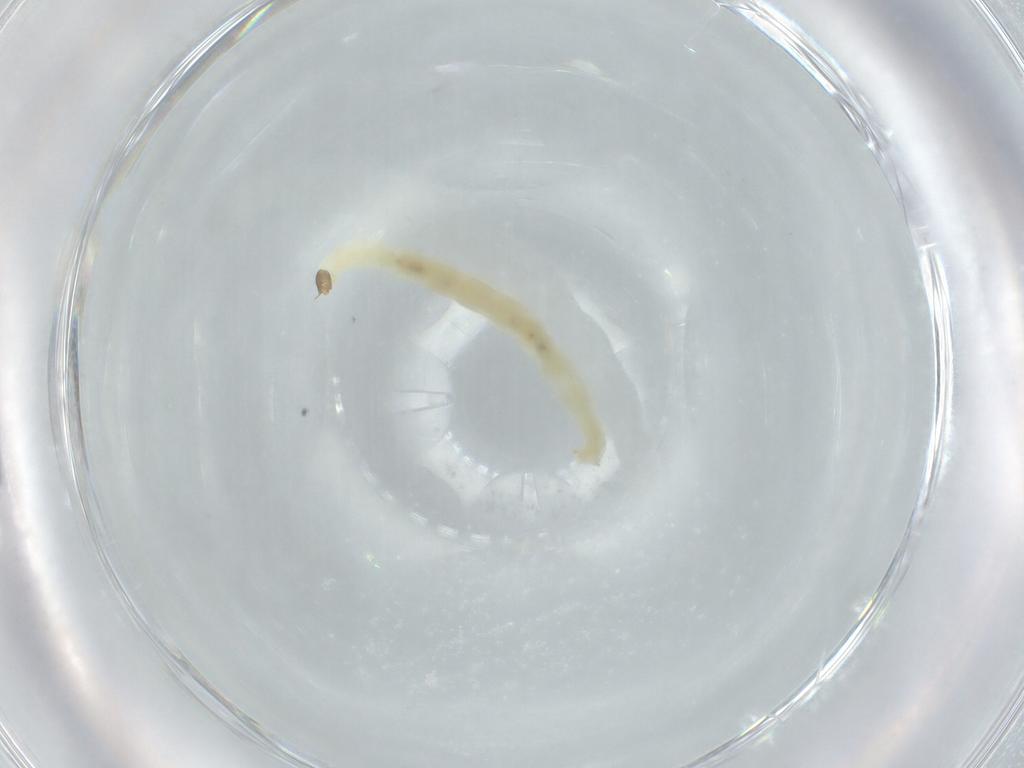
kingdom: Animalia
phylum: Arthropoda
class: Insecta
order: Diptera
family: Chironomidae
